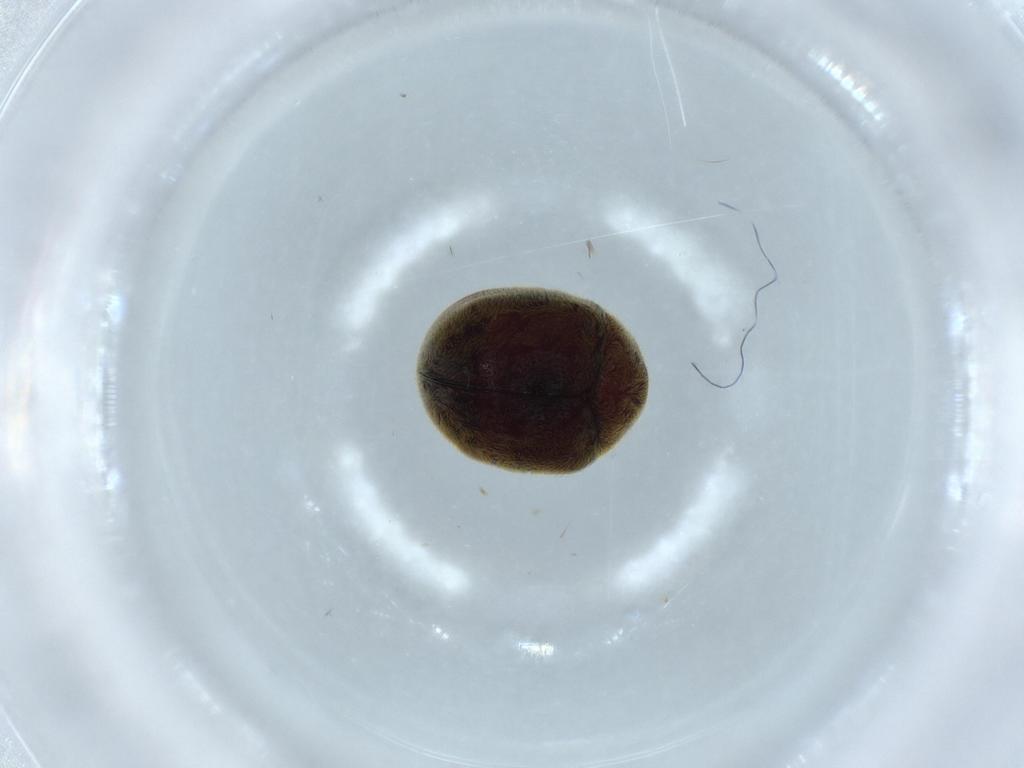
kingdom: Animalia
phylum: Arthropoda
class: Insecta
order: Coleoptera
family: Ptinidae
